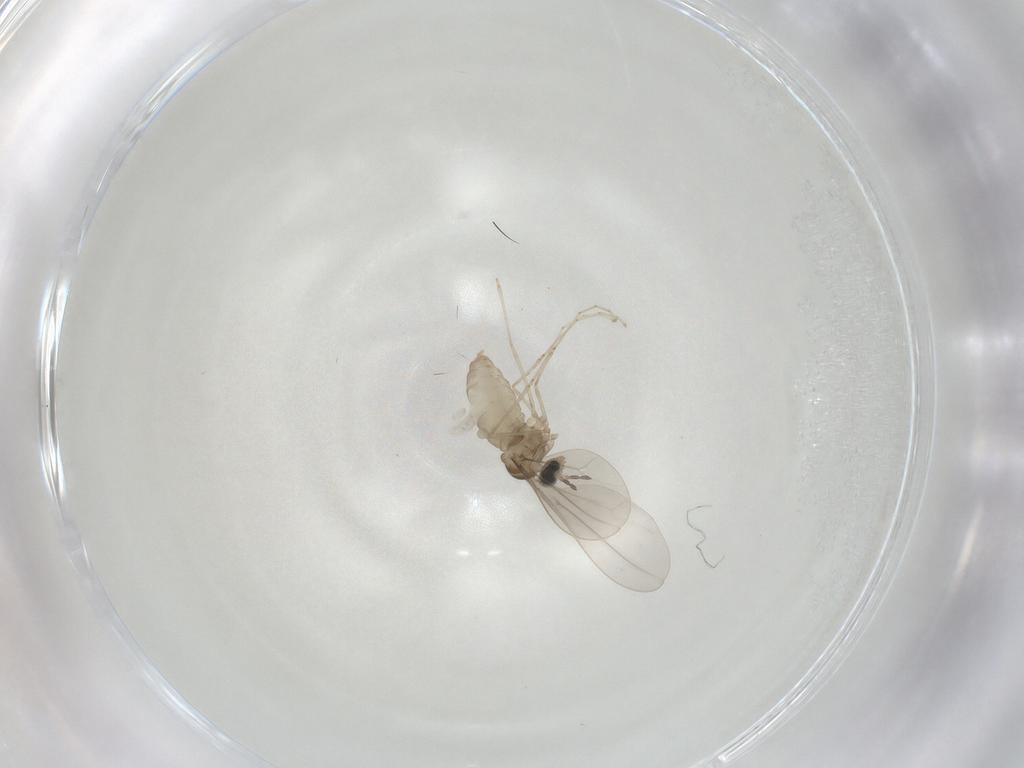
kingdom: Animalia
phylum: Arthropoda
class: Insecta
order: Diptera
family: Cecidomyiidae
